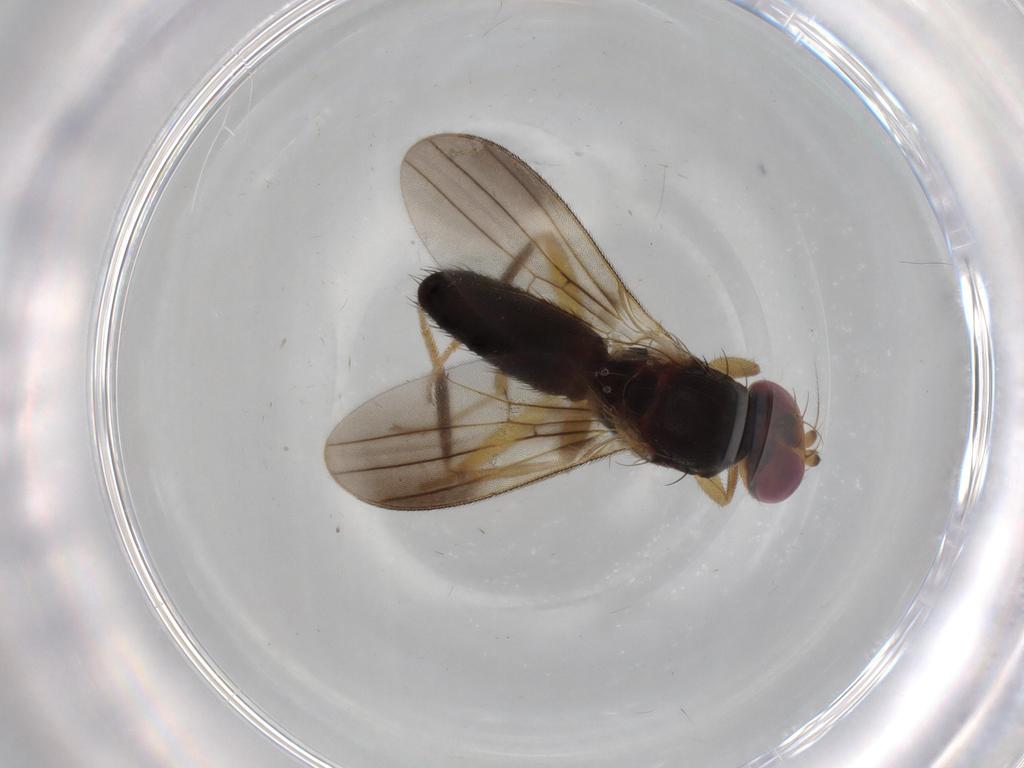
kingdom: Animalia
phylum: Arthropoda
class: Insecta
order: Diptera
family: Clusiidae
